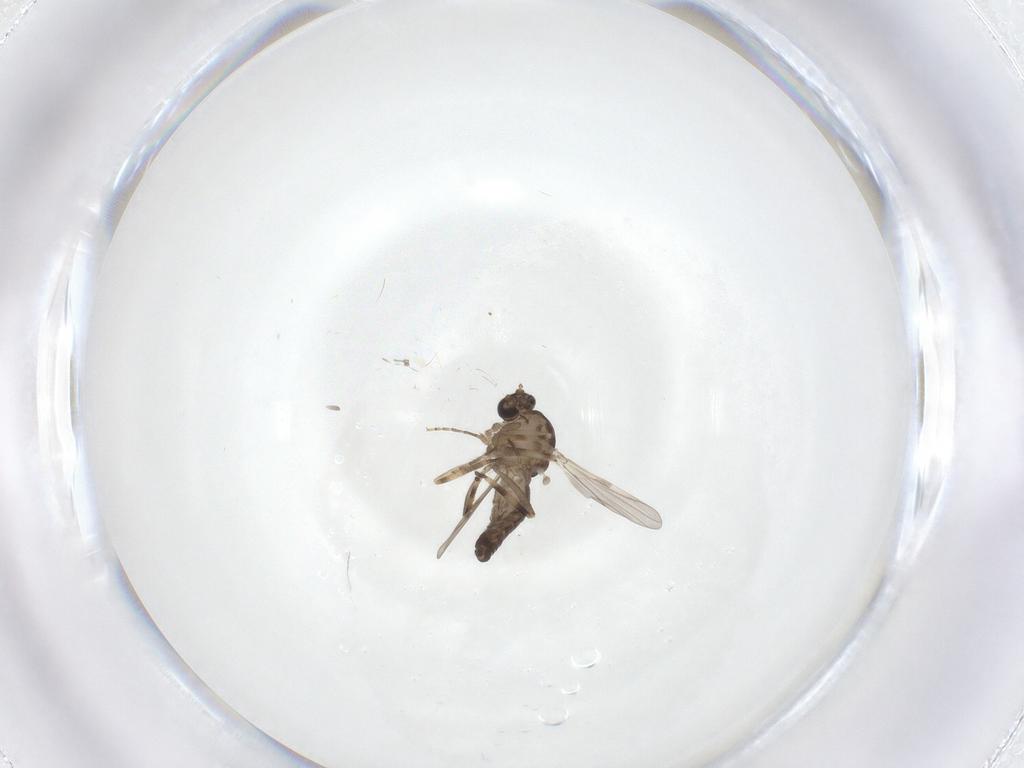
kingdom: Animalia
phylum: Arthropoda
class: Insecta
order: Diptera
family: Ceratopogonidae
